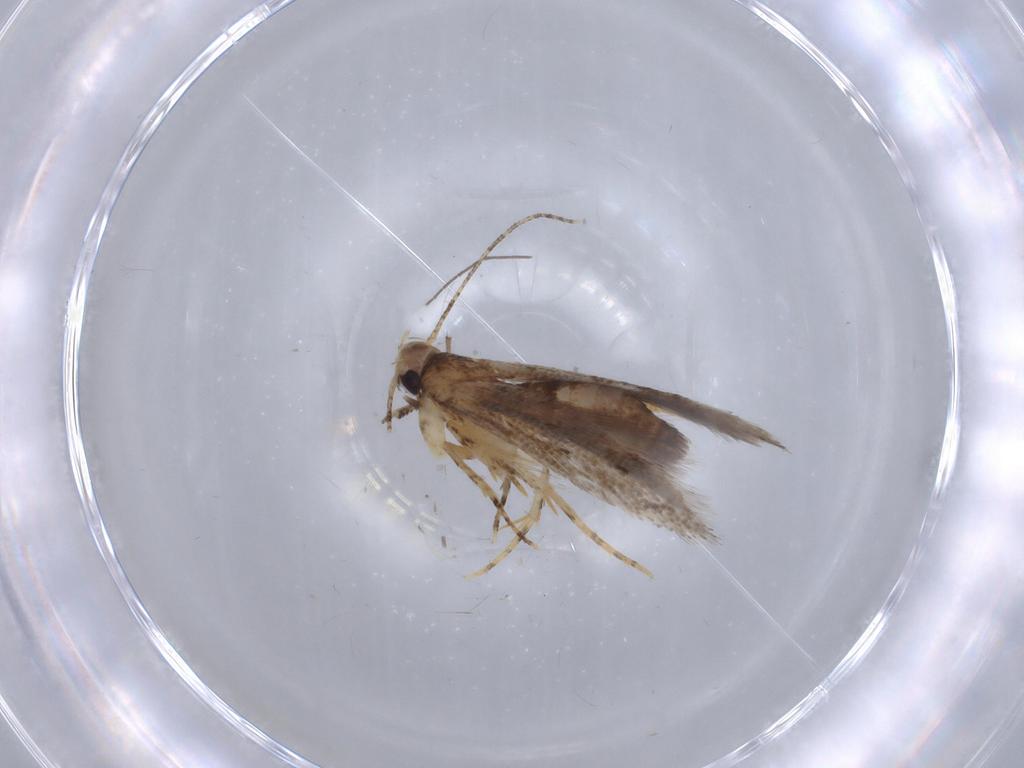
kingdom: Animalia
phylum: Arthropoda
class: Insecta
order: Lepidoptera
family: Gelechiidae
